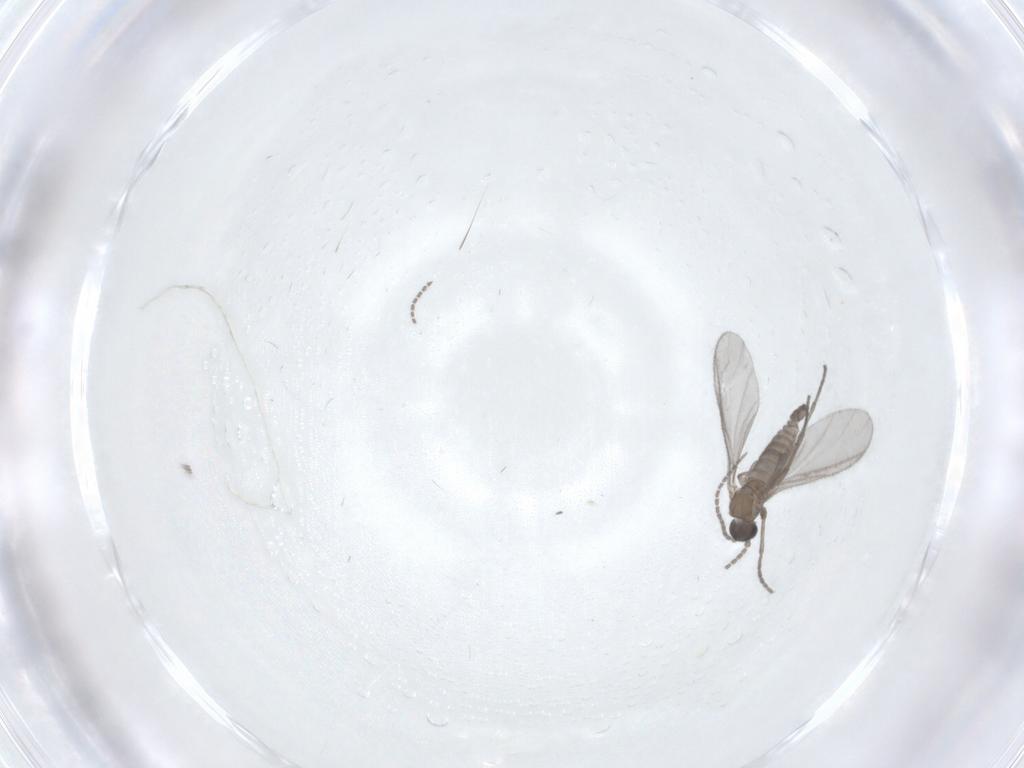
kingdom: Animalia
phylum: Arthropoda
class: Insecta
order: Diptera
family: Sciaridae
